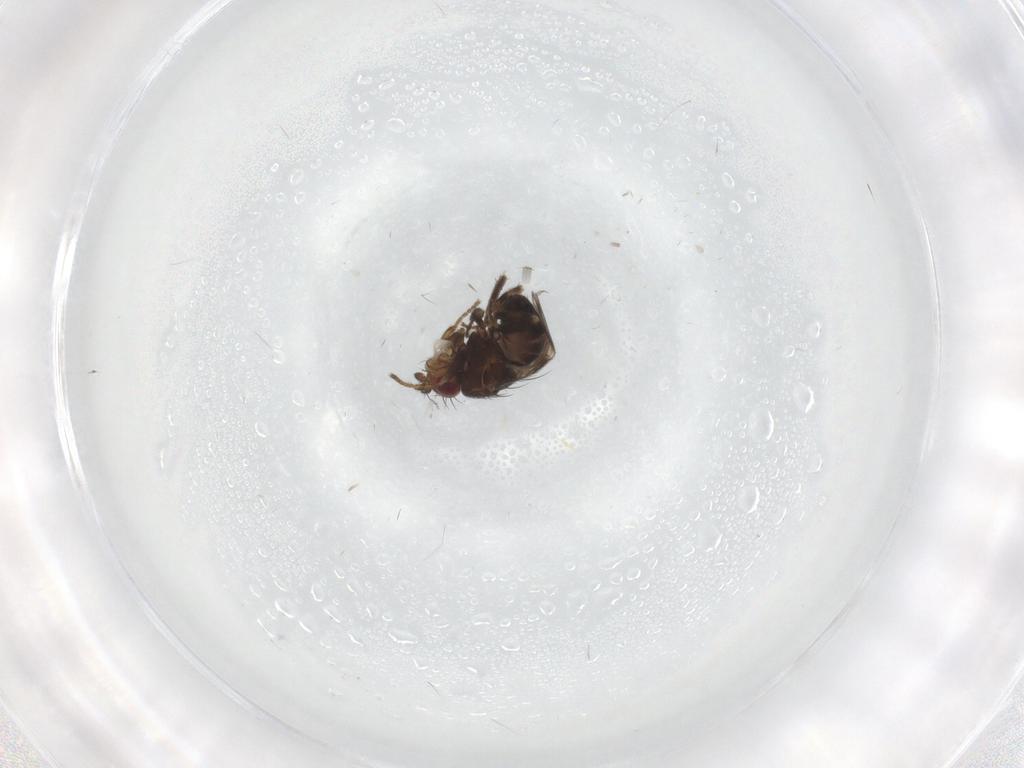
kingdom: Animalia
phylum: Arthropoda
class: Insecta
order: Diptera
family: Sphaeroceridae
